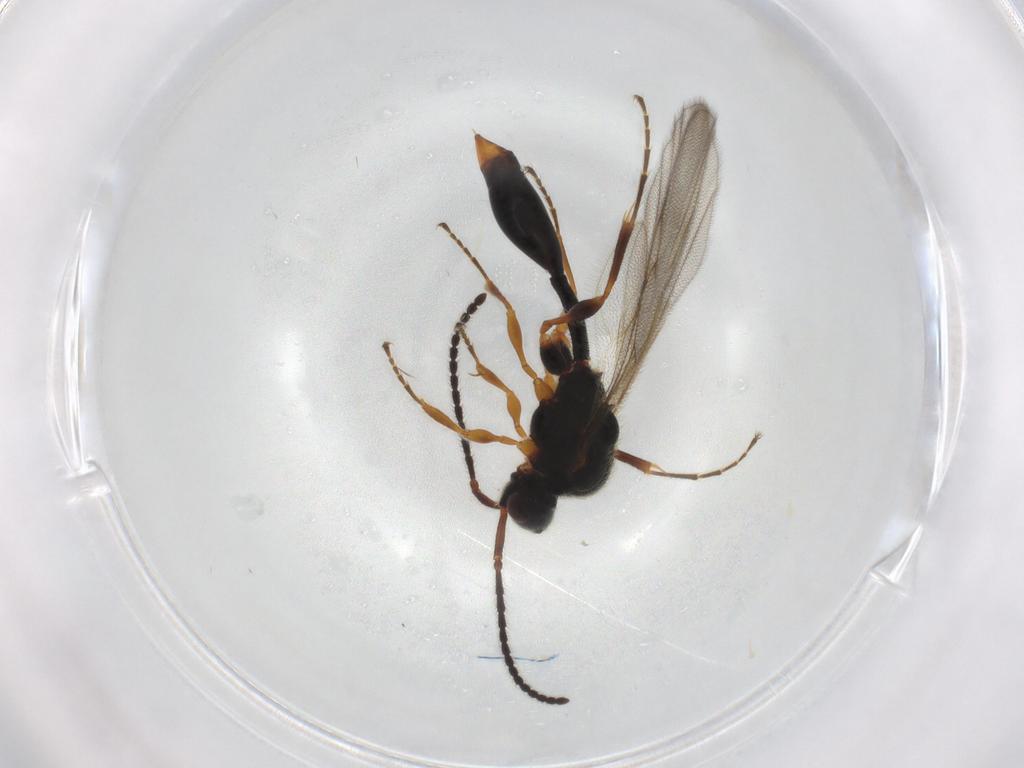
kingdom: Animalia
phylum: Arthropoda
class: Insecta
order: Hymenoptera
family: Diapriidae
